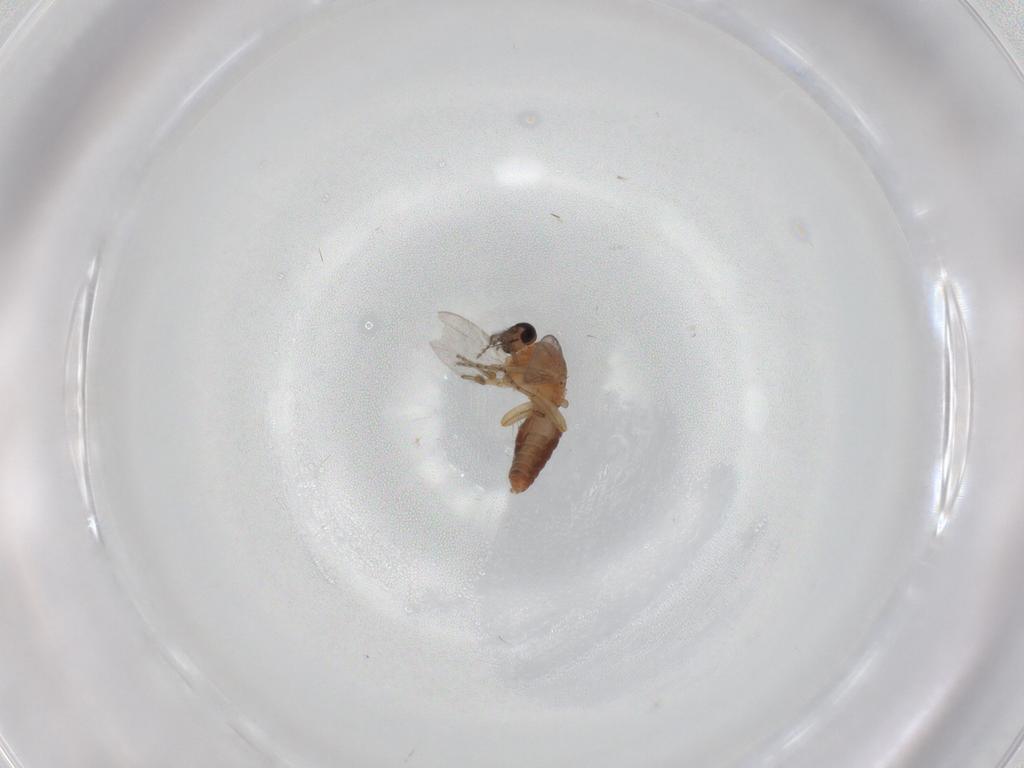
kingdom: Animalia
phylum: Arthropoda
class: Insecta
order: Diptera
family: Ceratopogonidae
